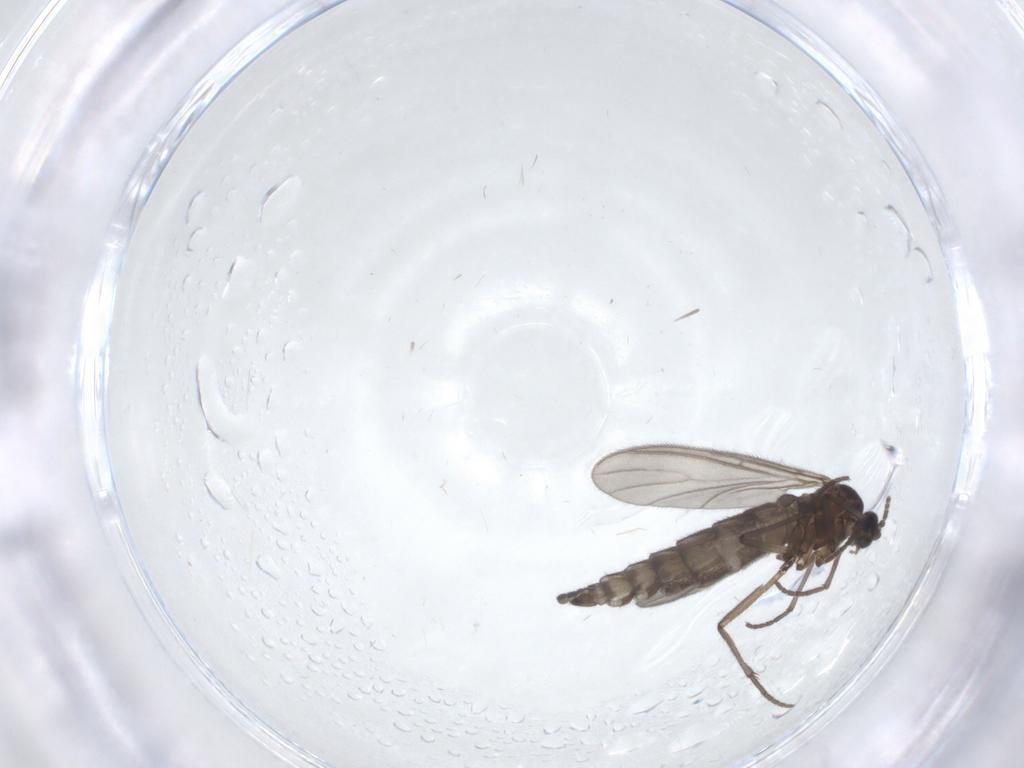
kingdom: Animalia
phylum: Arthropoda
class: Insecta
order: Diptera
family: Sciaridae
